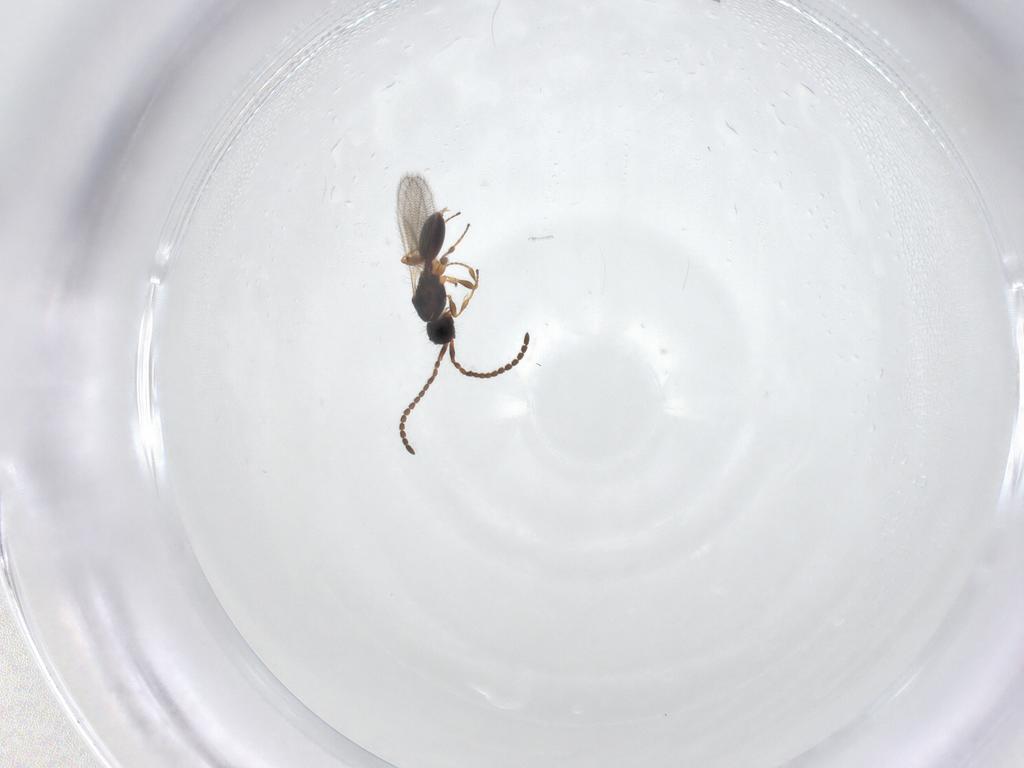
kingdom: Animalia
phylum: Arthropoda
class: Insecta
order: Hymenoptera
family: Diapriidae
